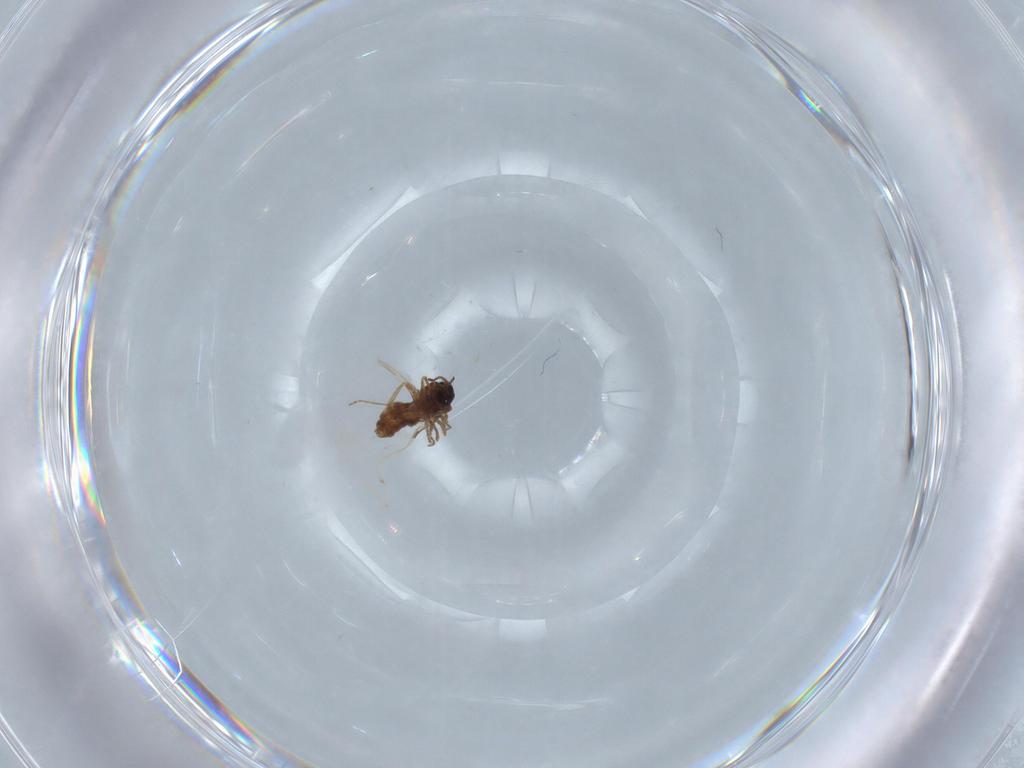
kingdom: Animalia
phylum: Arthropoda
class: Insecta
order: Diptera
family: Ceratopogonidae
